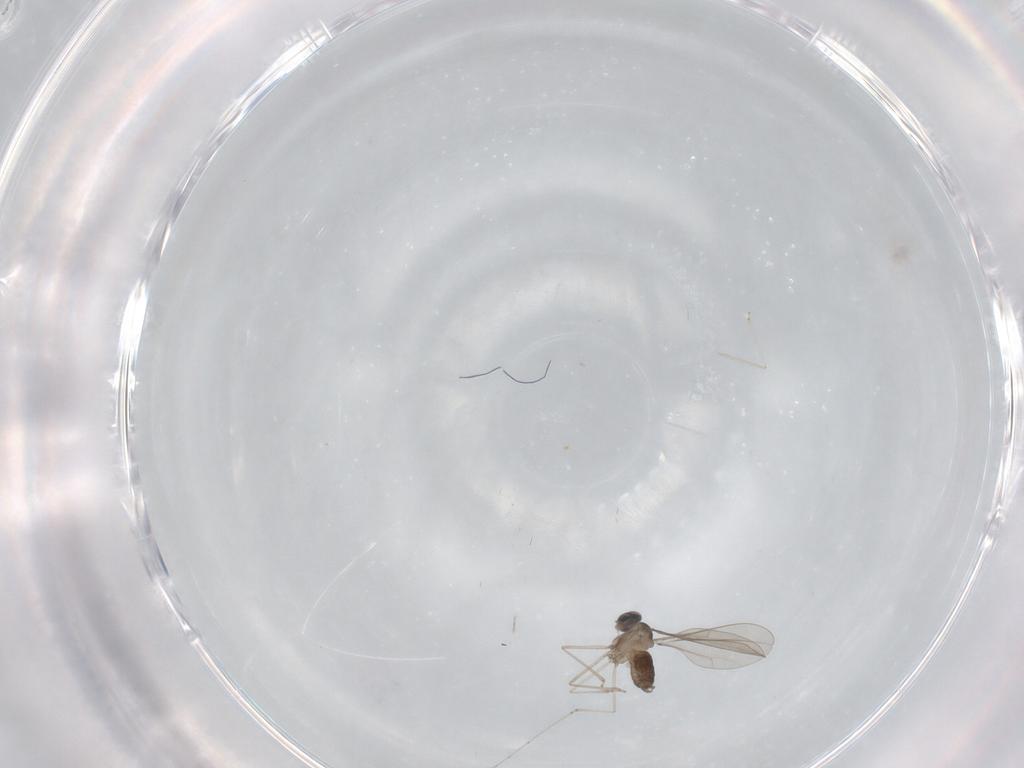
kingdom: Animalia
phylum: Arthropoda
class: Insecta
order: Diptera
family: Cecidomyiidae
